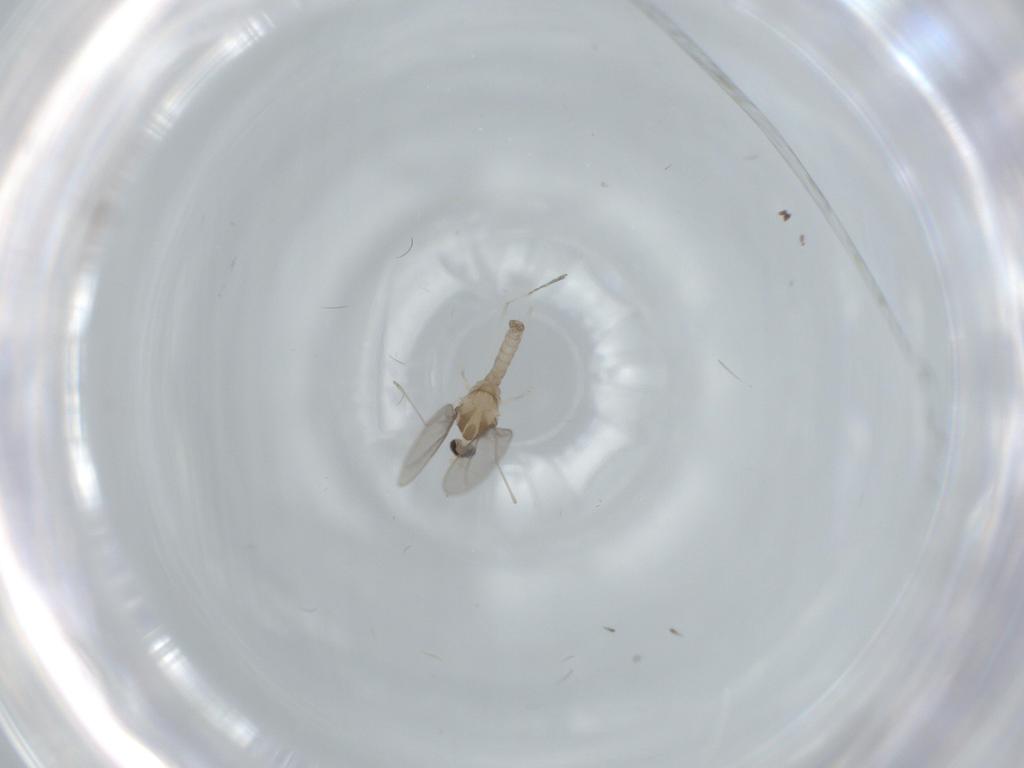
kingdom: Animalia
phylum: Arthropoda
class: Insecta
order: Diptera
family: Cecidomyiidae
